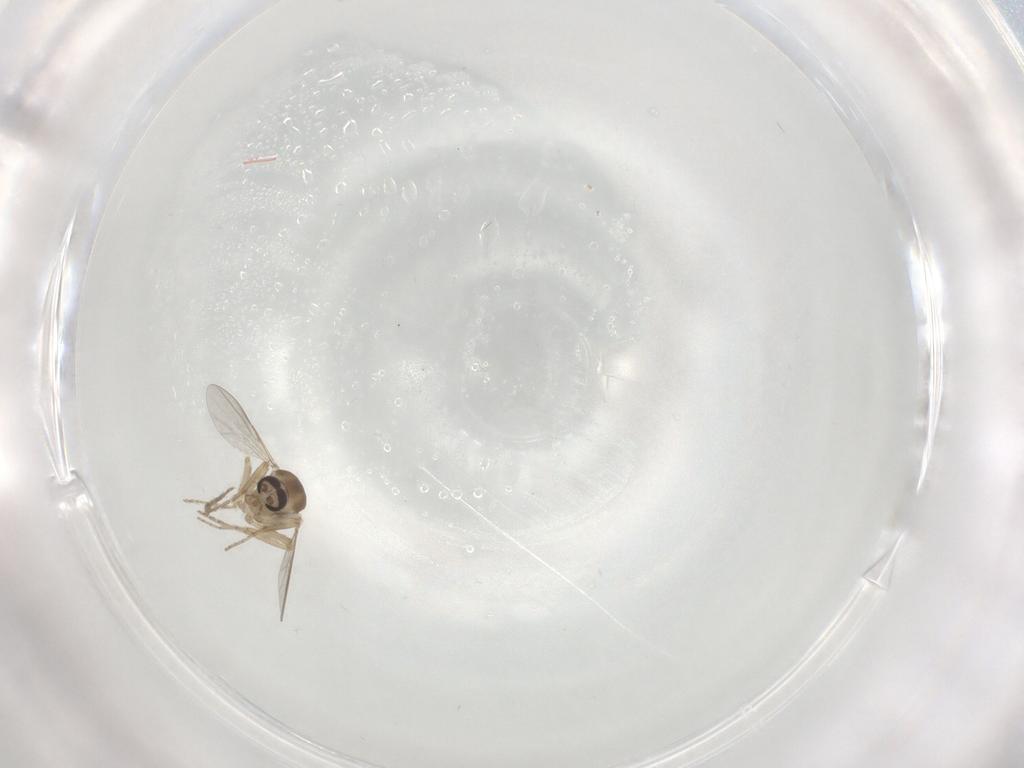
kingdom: Animalia
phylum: Arthropoda
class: Insecta
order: Diptera
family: Ceratopogonidae
